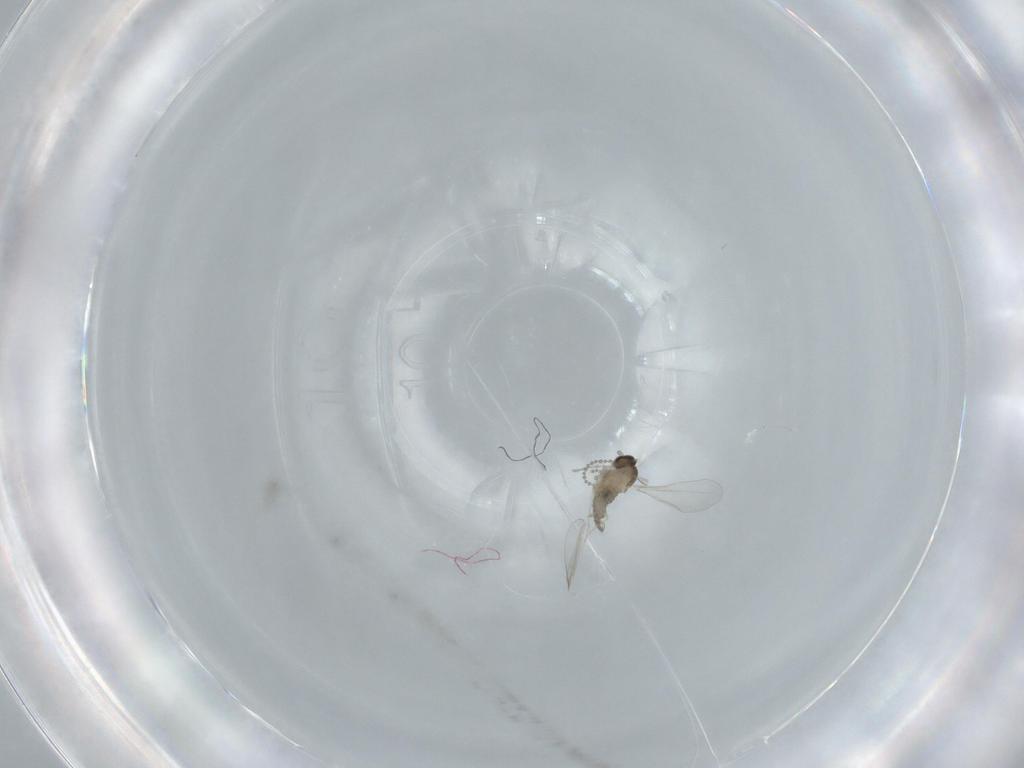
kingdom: Animalia
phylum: Arthropoda
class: Insecta
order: Diptera
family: Cecidomyiidae
